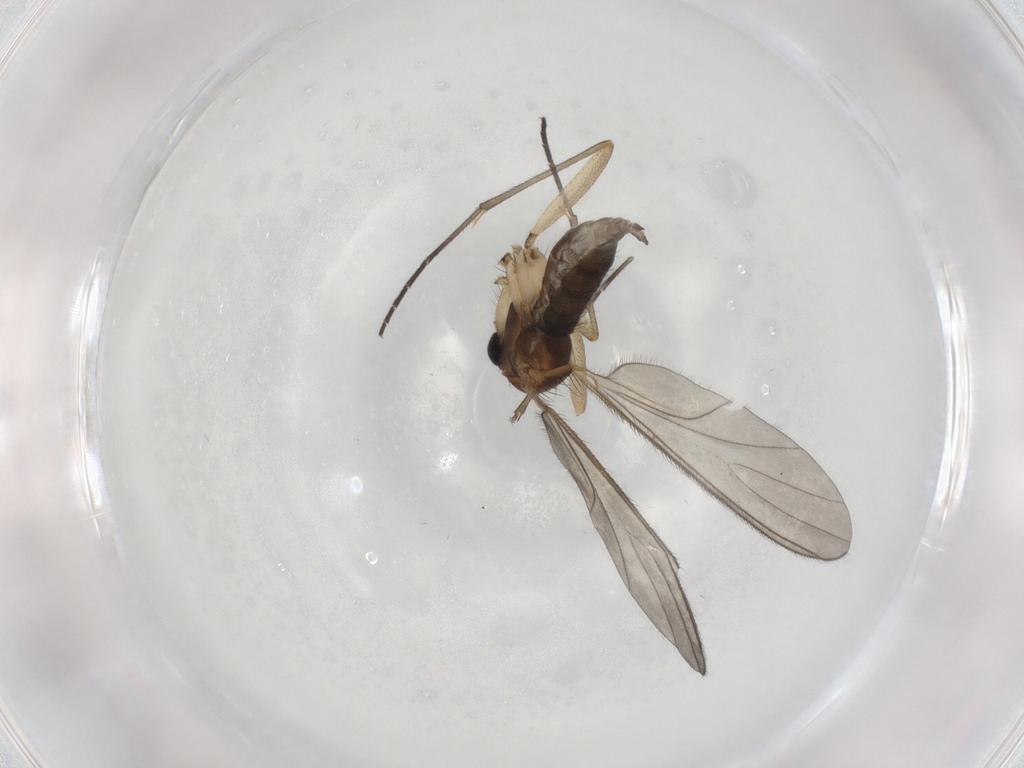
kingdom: Animalia
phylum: Arthropoda
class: Insecta
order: Diptera
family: Sciaridae
